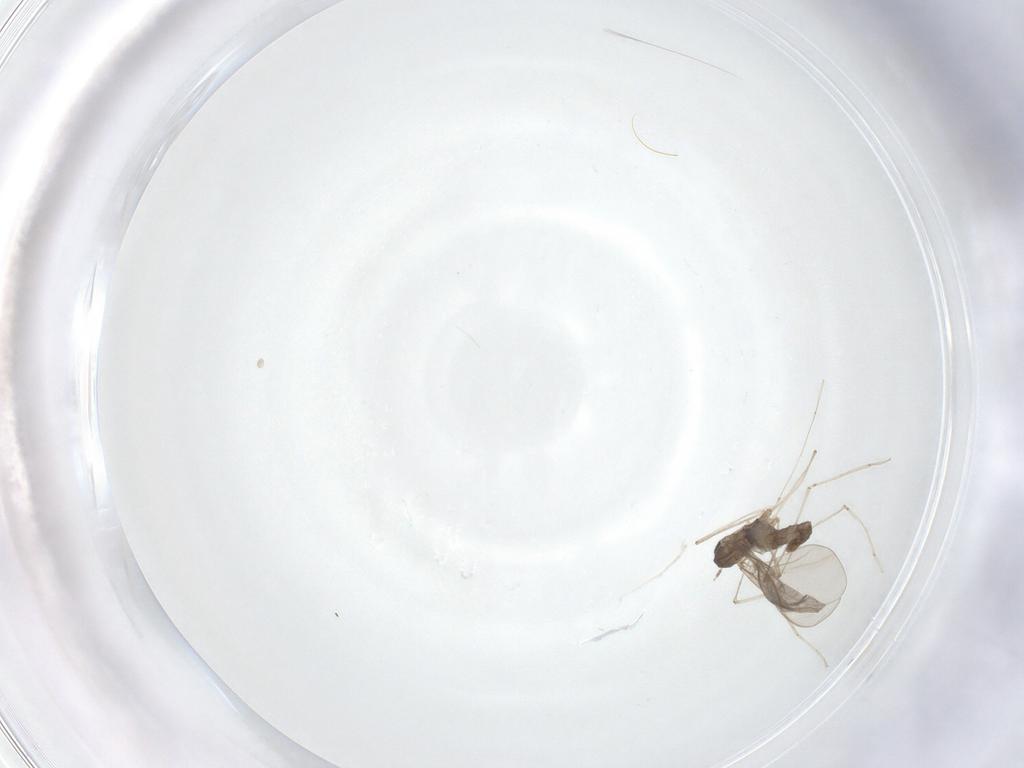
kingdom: Animalia
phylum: Arthropoda
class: Insecta
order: Diptera
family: Cecidomyiidae
